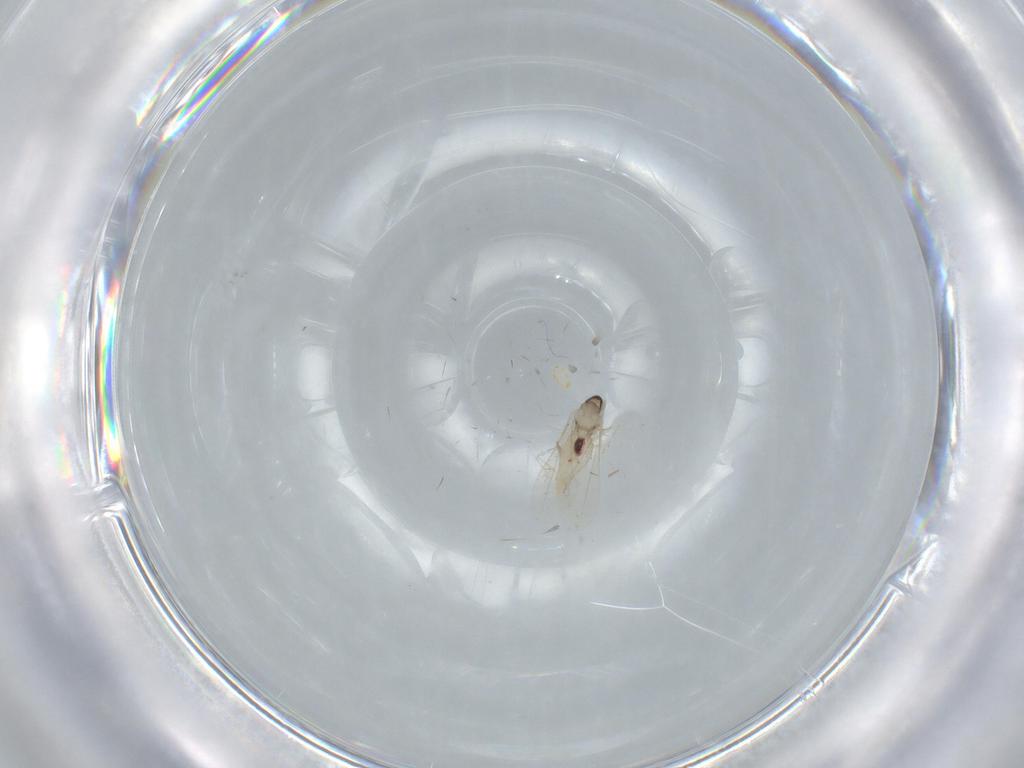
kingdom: Animalia
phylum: Arthropoda
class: Insecta
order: Diptera
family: Cecidomyiidae
